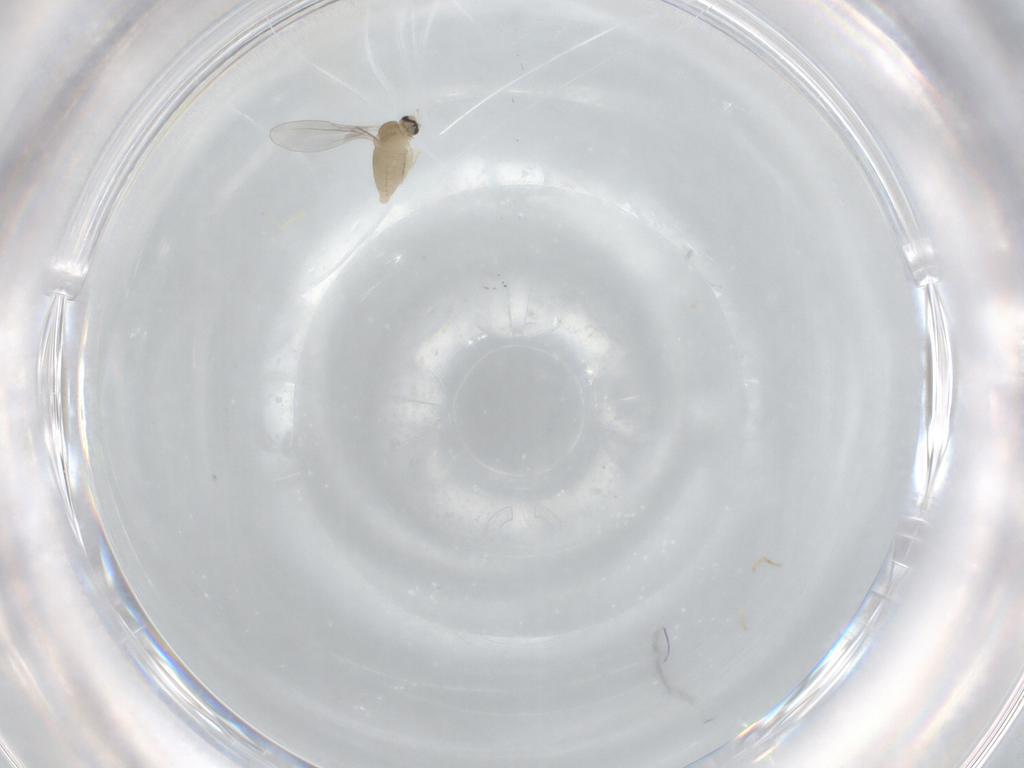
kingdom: Animalia
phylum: Arthropoda
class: Insecta
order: Diptera
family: Cecidomyiidae
